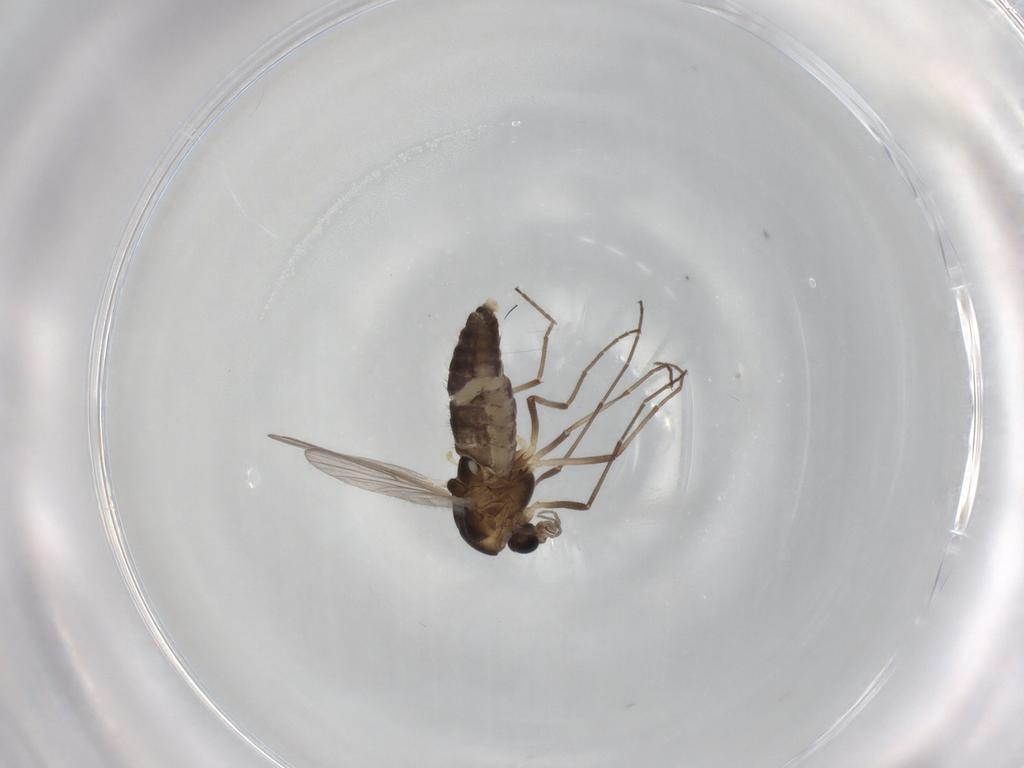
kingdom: Animalia
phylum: Arthropoda
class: Insecta
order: Diptera
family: Chironomidae
